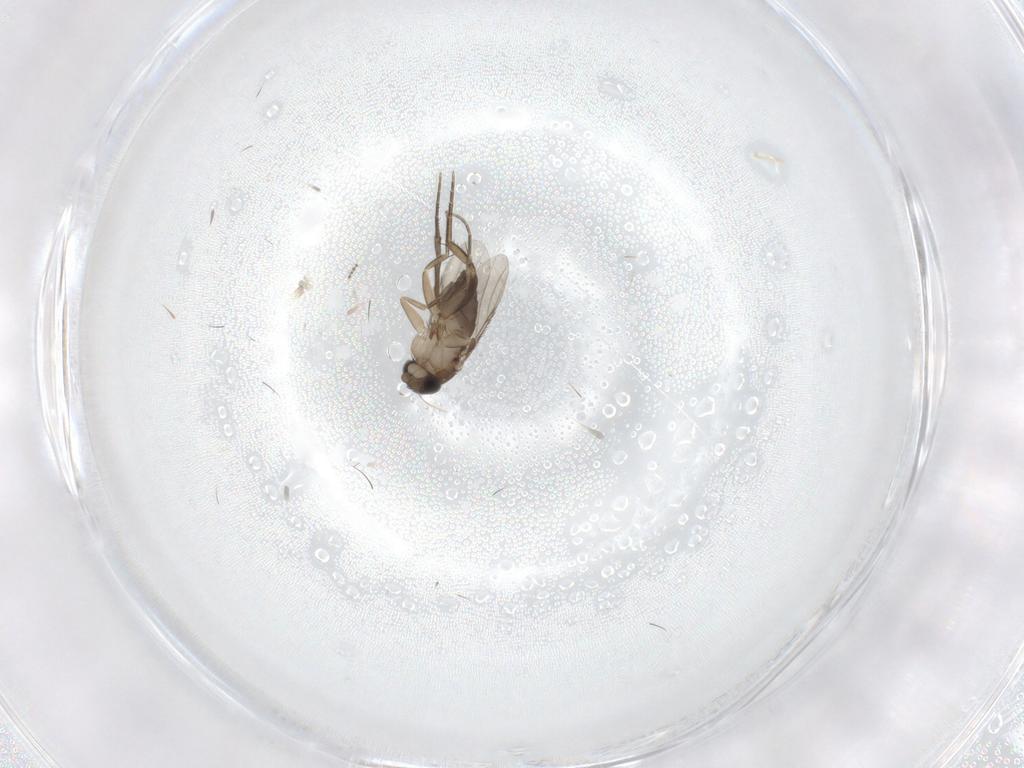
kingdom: Animalia
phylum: Arthropoda
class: Insecta
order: Diptera
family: Phoridae
